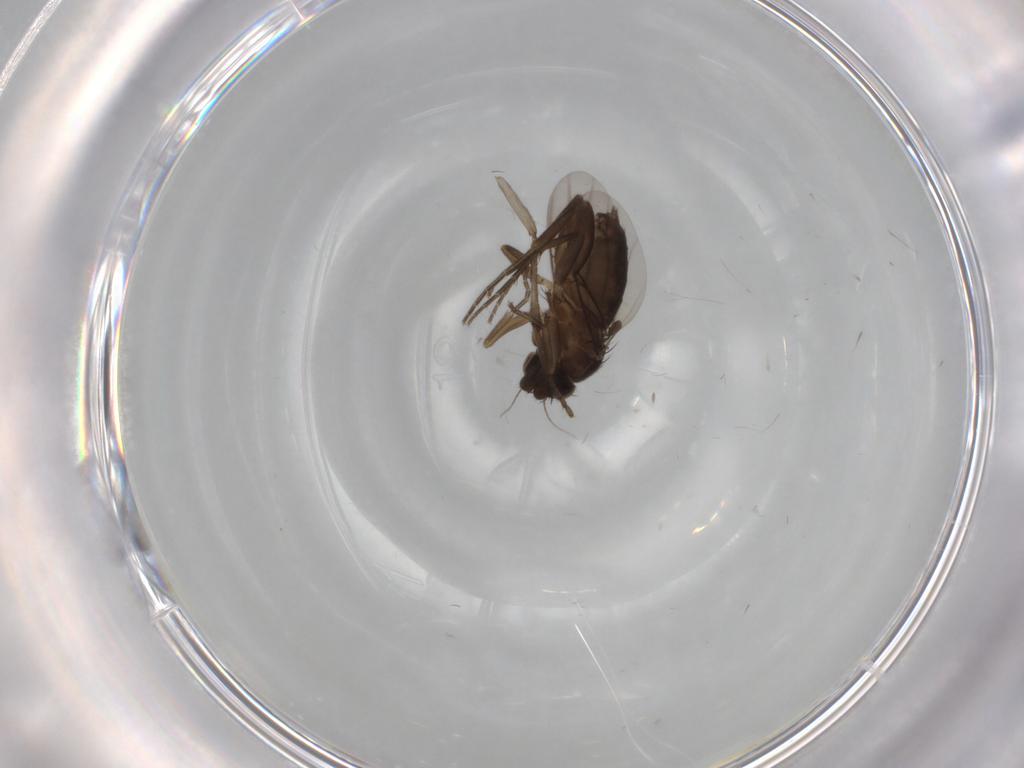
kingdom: Animalia
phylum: Arthropoda
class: Insecta
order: Diptera
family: Phoridae
